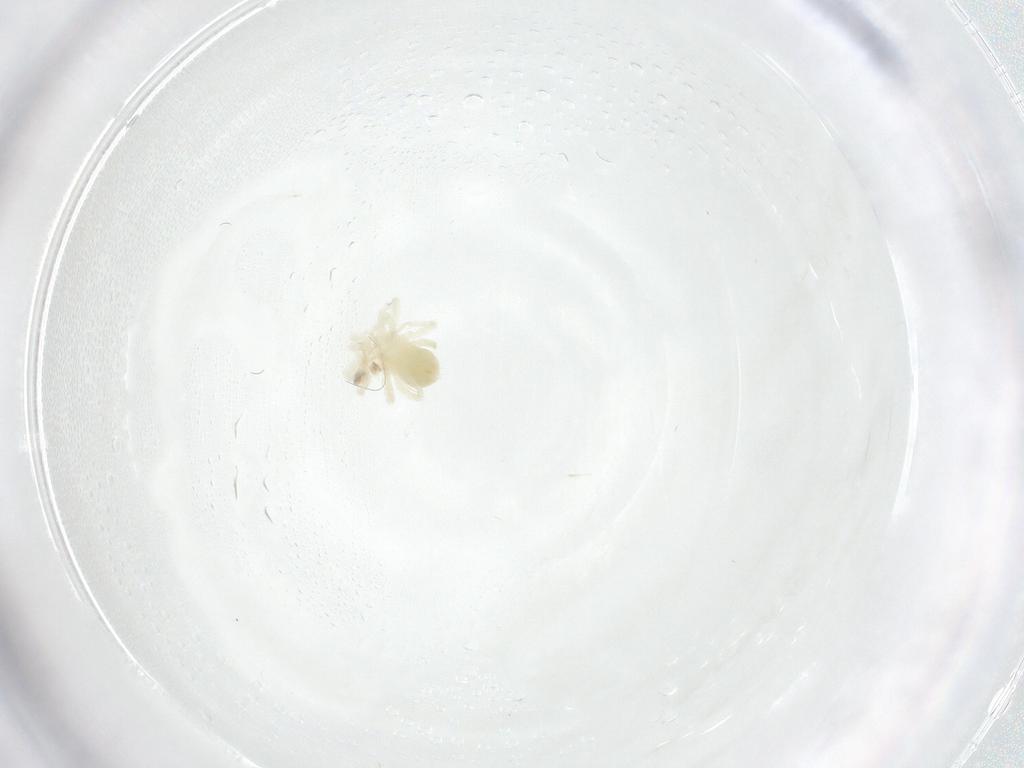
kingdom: Animalia
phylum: Arthropoda
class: Arachnida
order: Trombidiformes
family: Anystidae
